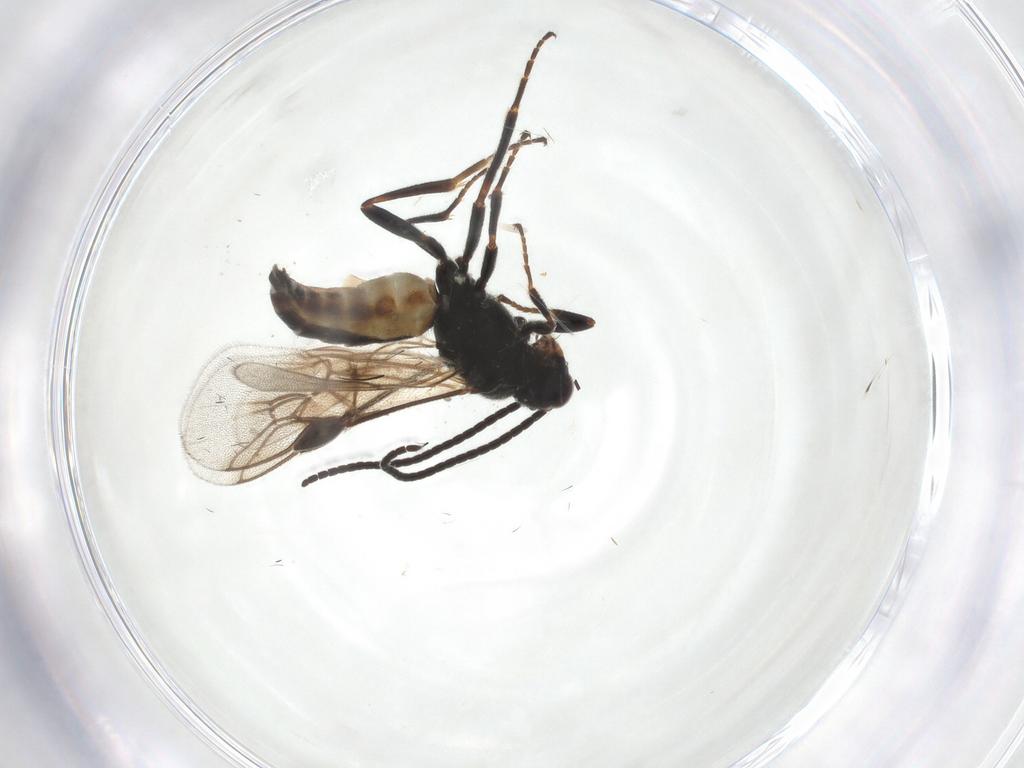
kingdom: Animalia
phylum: Arthropoda
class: Insecta
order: Hymenoptera
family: Braconidae
